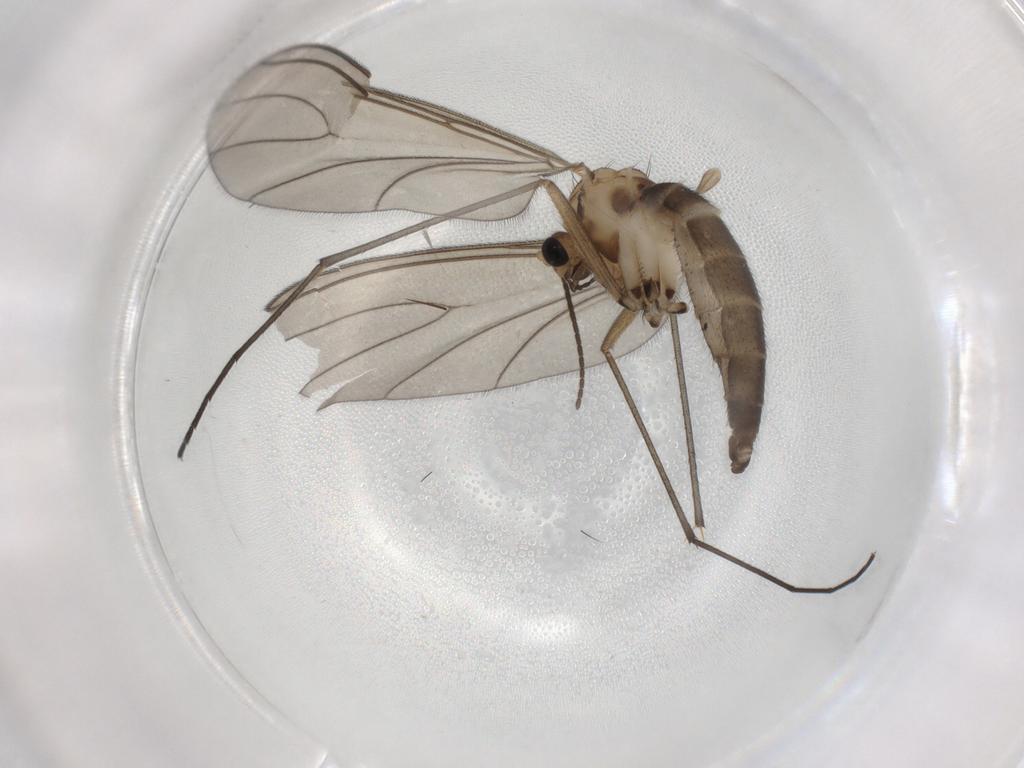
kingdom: Animalia
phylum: Arthropoda
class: Insecta
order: Diptera
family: Sciaridae
